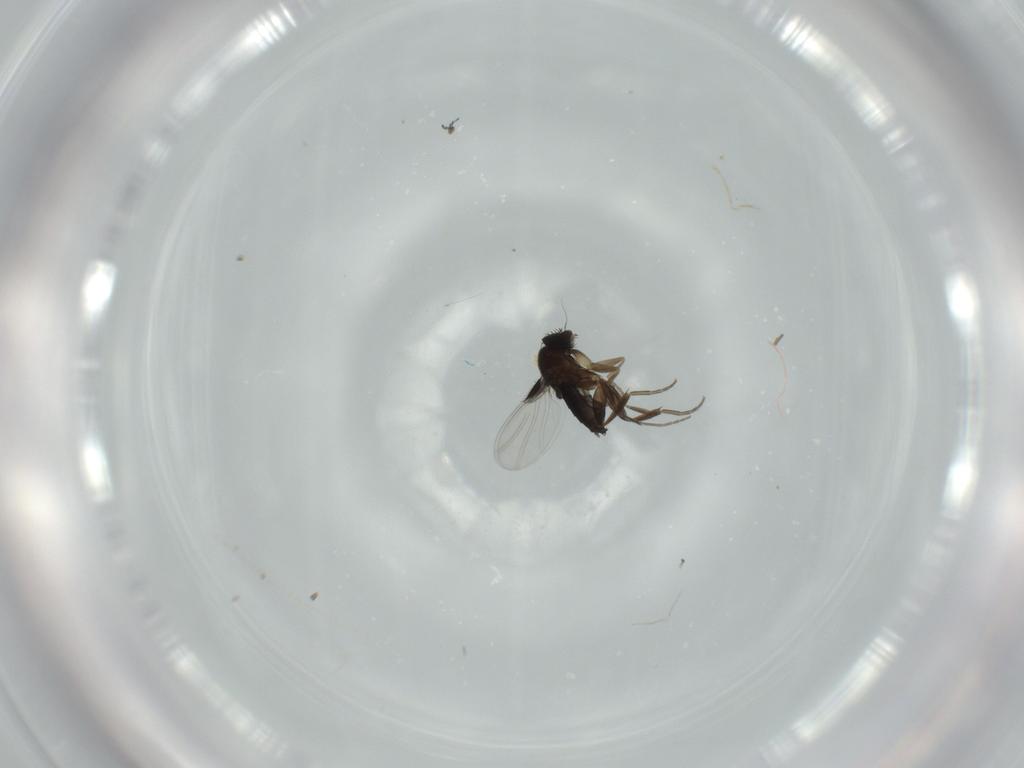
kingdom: Animalia
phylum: Arthropoda
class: Insecta
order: Diptera
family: Phoridae
